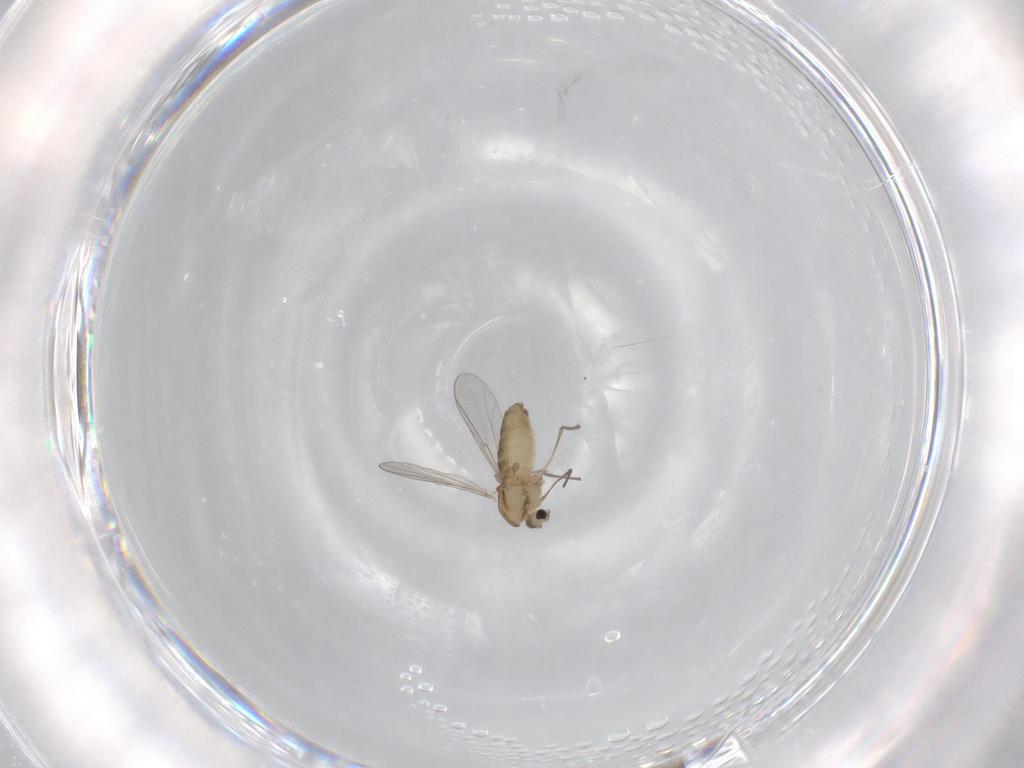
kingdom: Animalia
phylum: Arthropoda
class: Insecta
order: Diptera
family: Chironomidae
